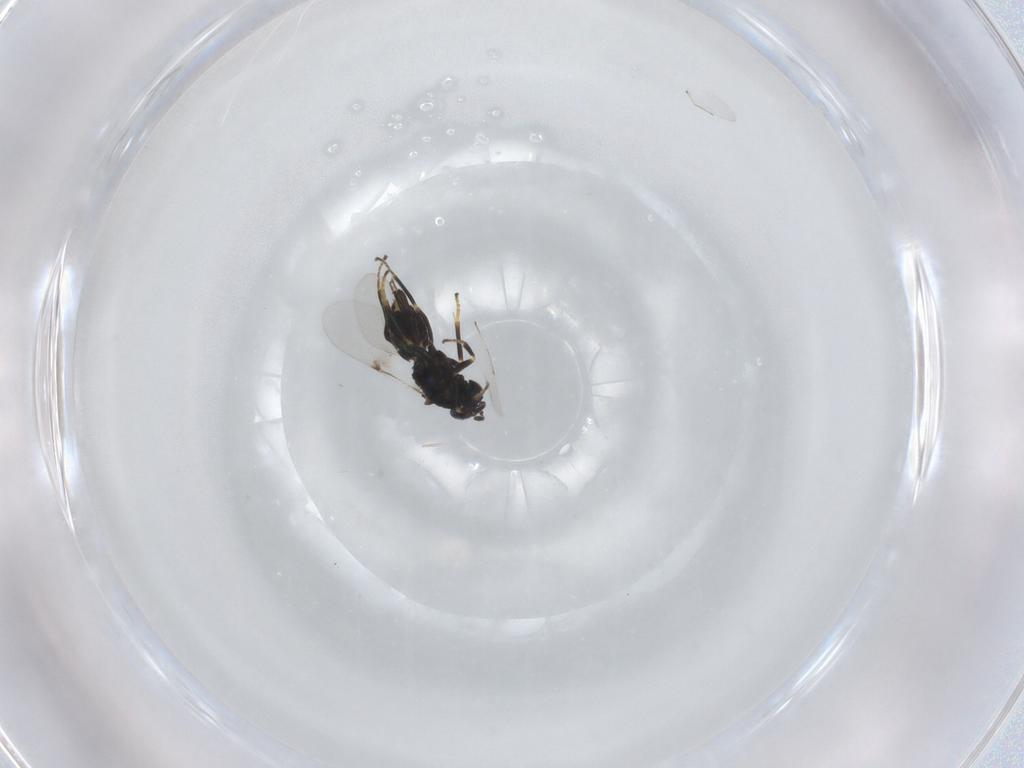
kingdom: Animalia
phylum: Arthropoda
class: Insecta
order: Hymenoptera
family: Encyrtidae
